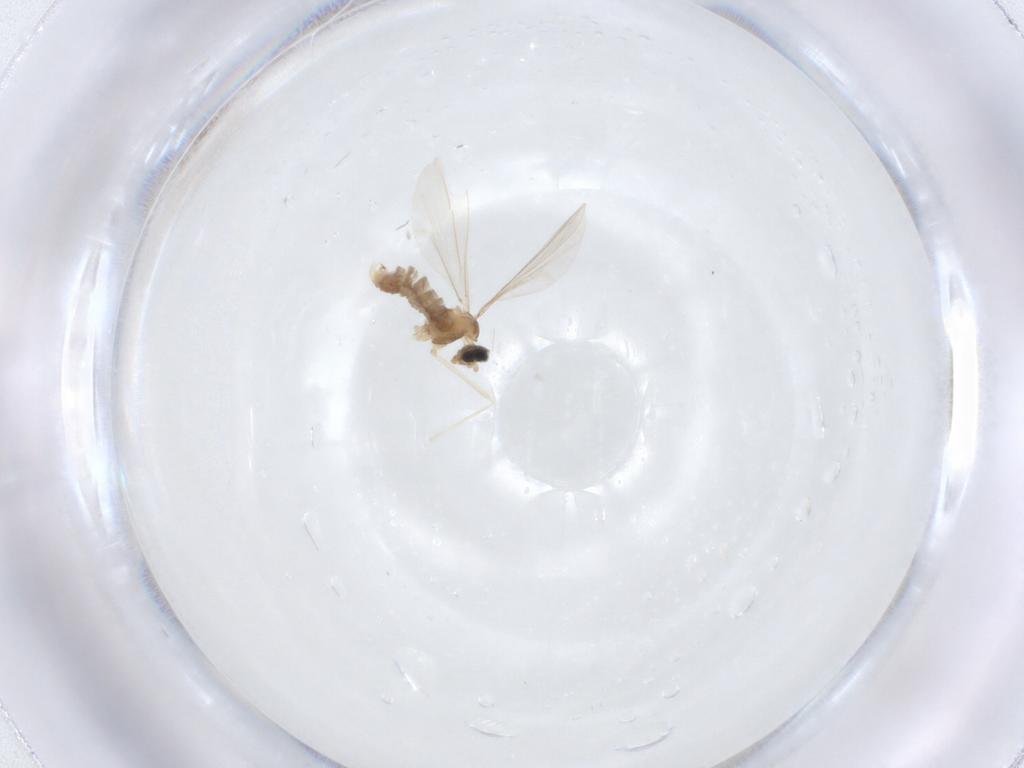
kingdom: Animalia
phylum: Arthropoda
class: Insecta
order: Diptera
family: Cecidomyiidae
